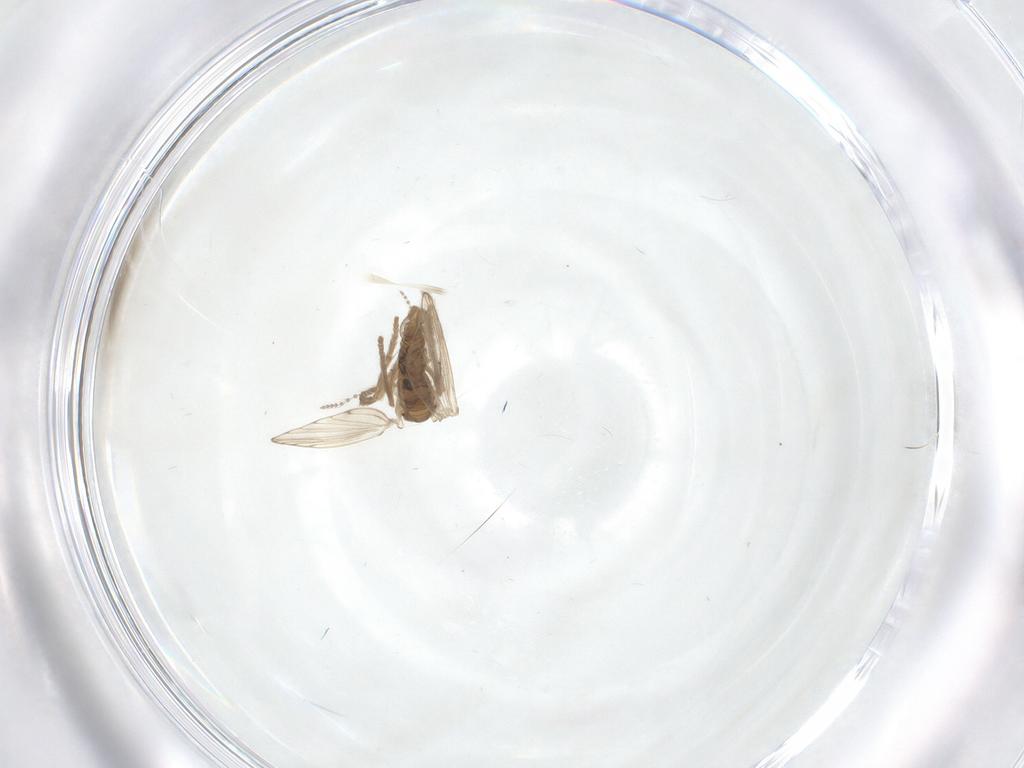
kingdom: Animalia
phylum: Arthropoda
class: Insecta
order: Diptera
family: Psychodidae
